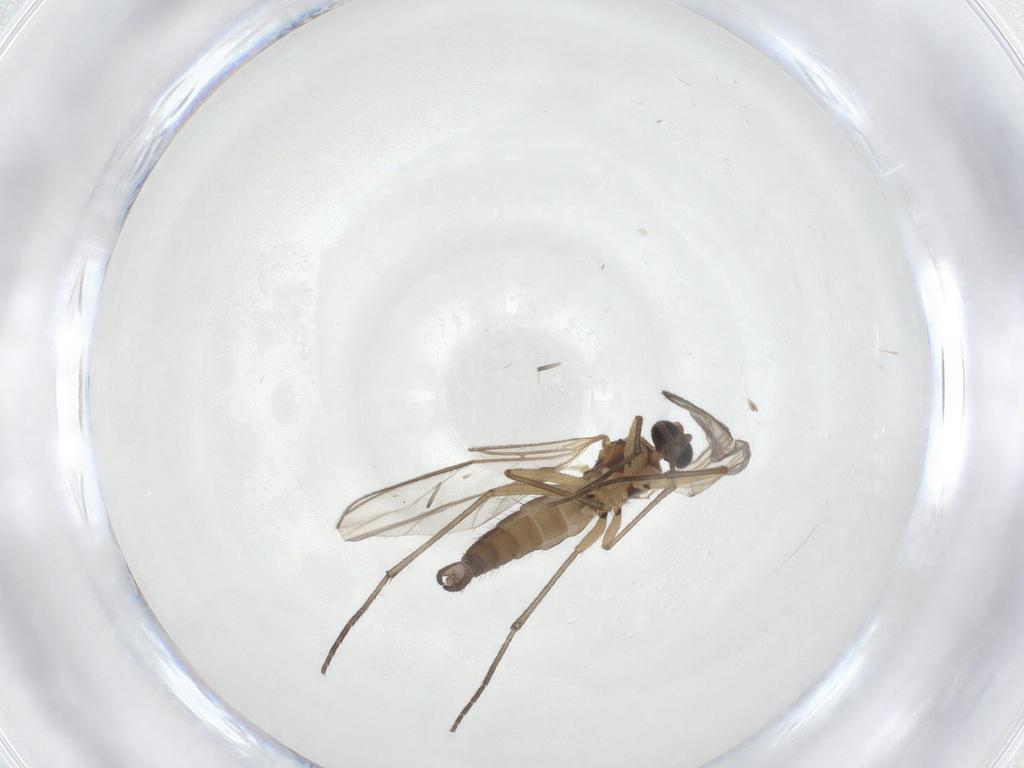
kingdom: Animalia
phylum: Arthropoda
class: Insecta
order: Diptera
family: Sciaridae
